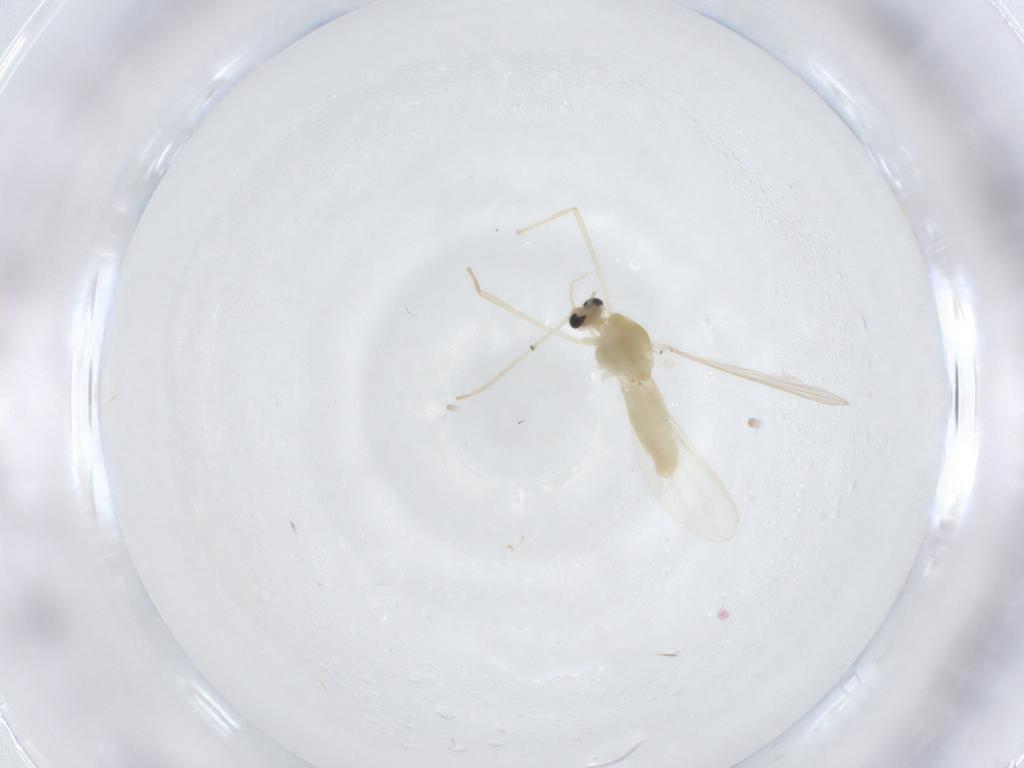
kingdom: Animalia
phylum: Arthropoda
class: Insecta
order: Diptera
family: Chironomidae
